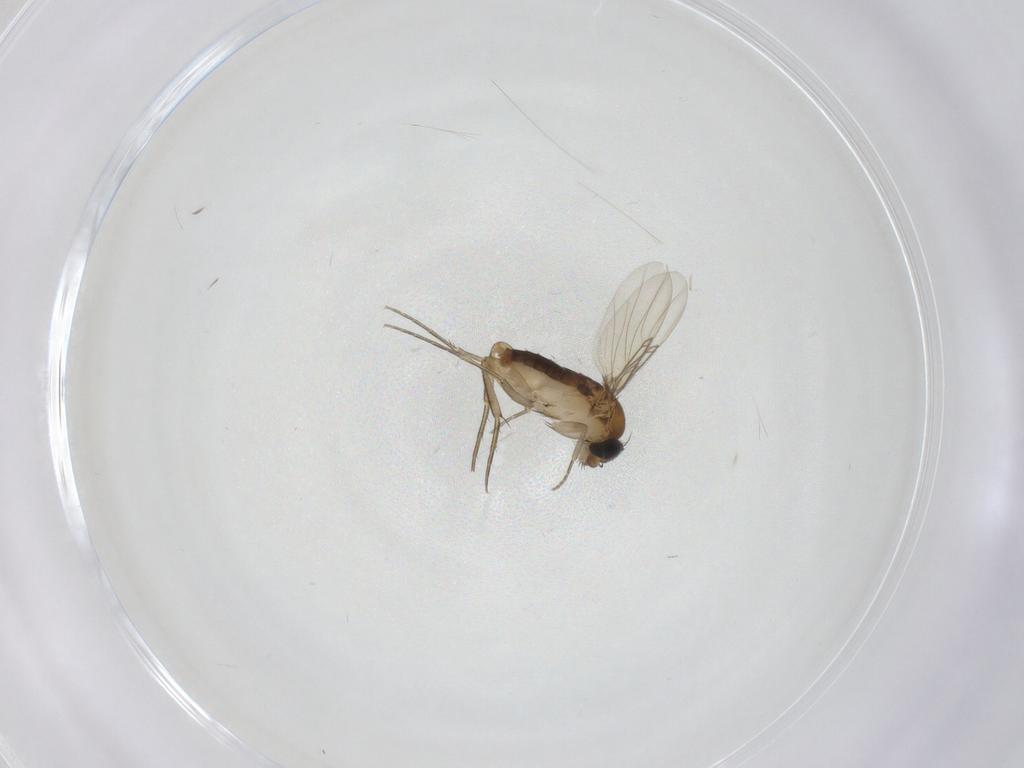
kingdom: Animalia
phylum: Arthropoda
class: Insecta
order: Diptera
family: Phoridae
